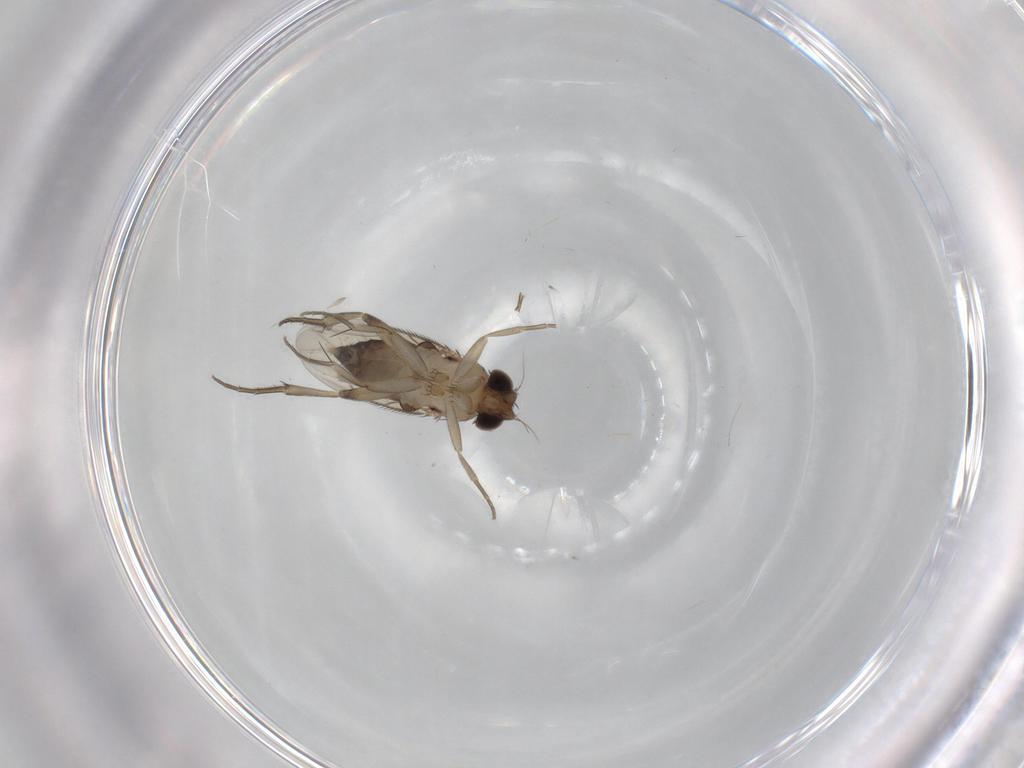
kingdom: Animalia
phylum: Arthropoda
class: Insecta
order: Diptera
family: Phoridae
